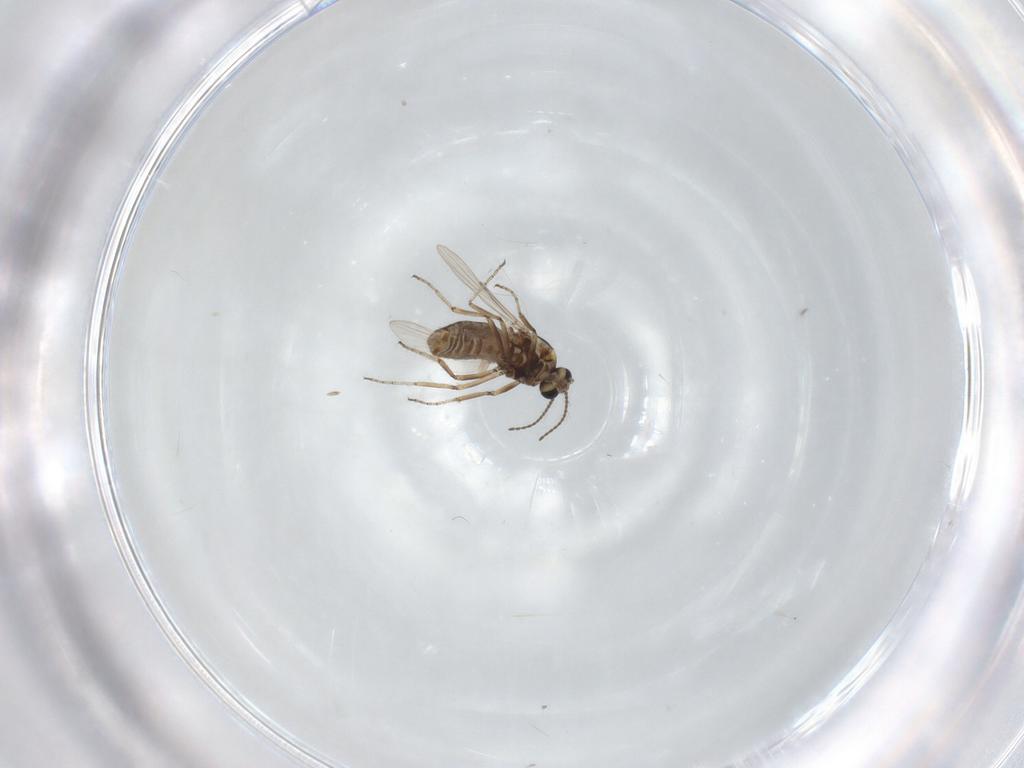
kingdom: Animalia
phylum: Arthropoda
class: Insecta
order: Diptera
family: Ceratopogonidae
